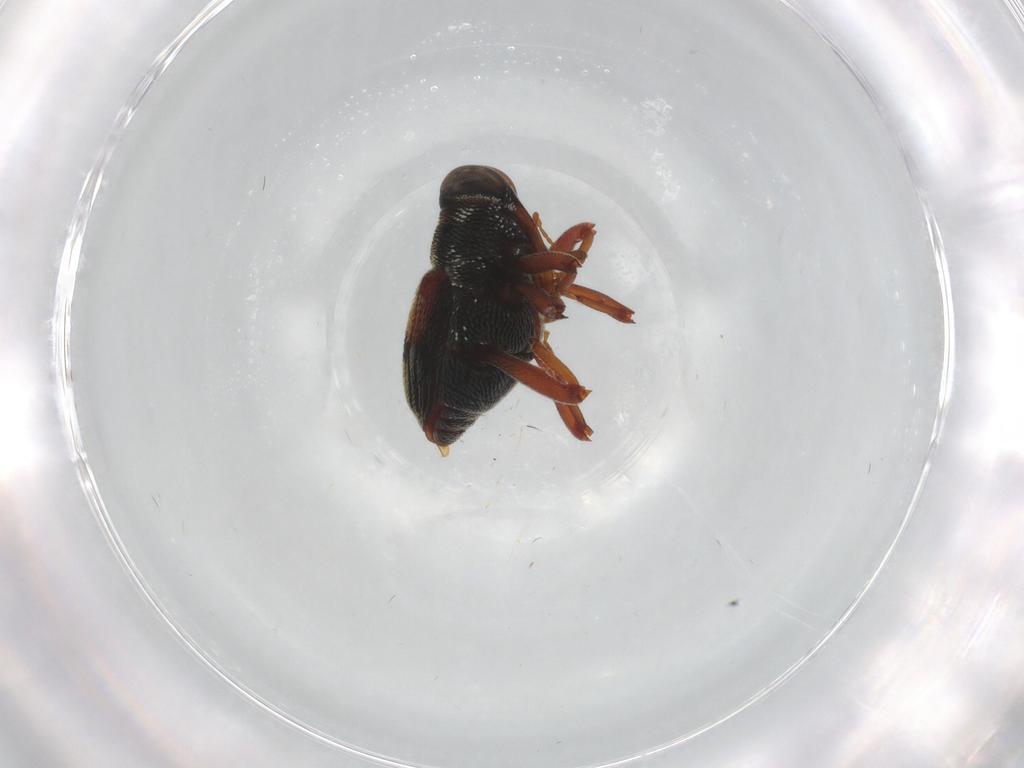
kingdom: Animalia
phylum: Arthropoda
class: Insecta
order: Coleoptera
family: Curculionidae
